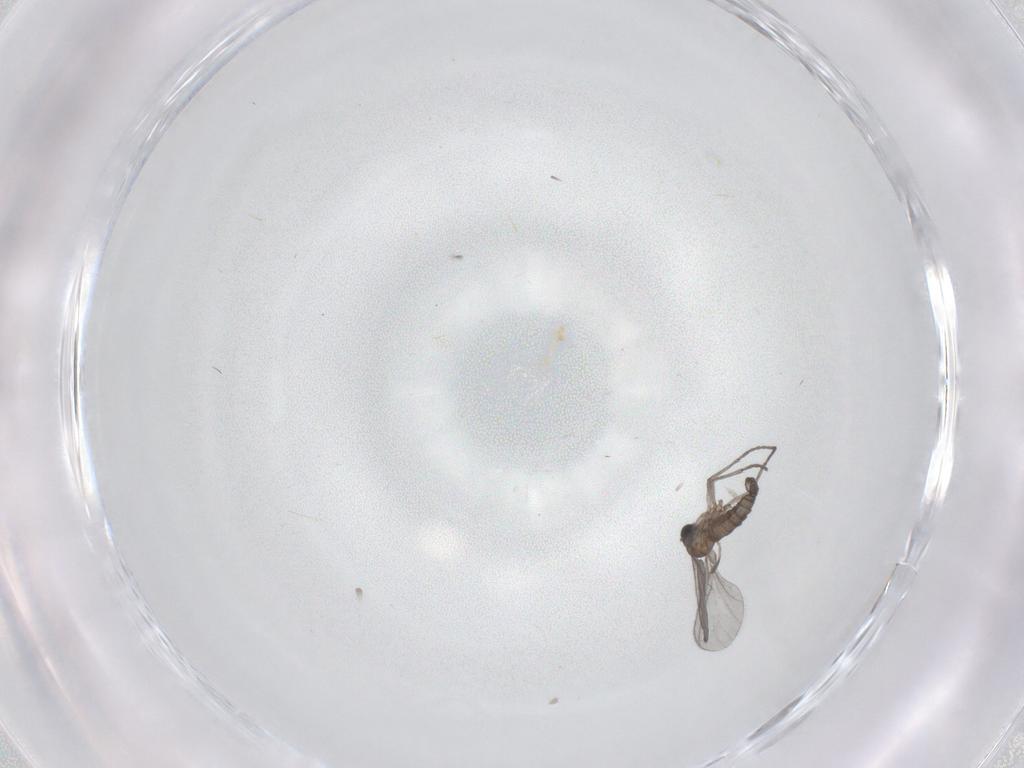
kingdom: Animalia
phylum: Arthropoda
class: Insecta
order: Diptera
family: Sciaridae
